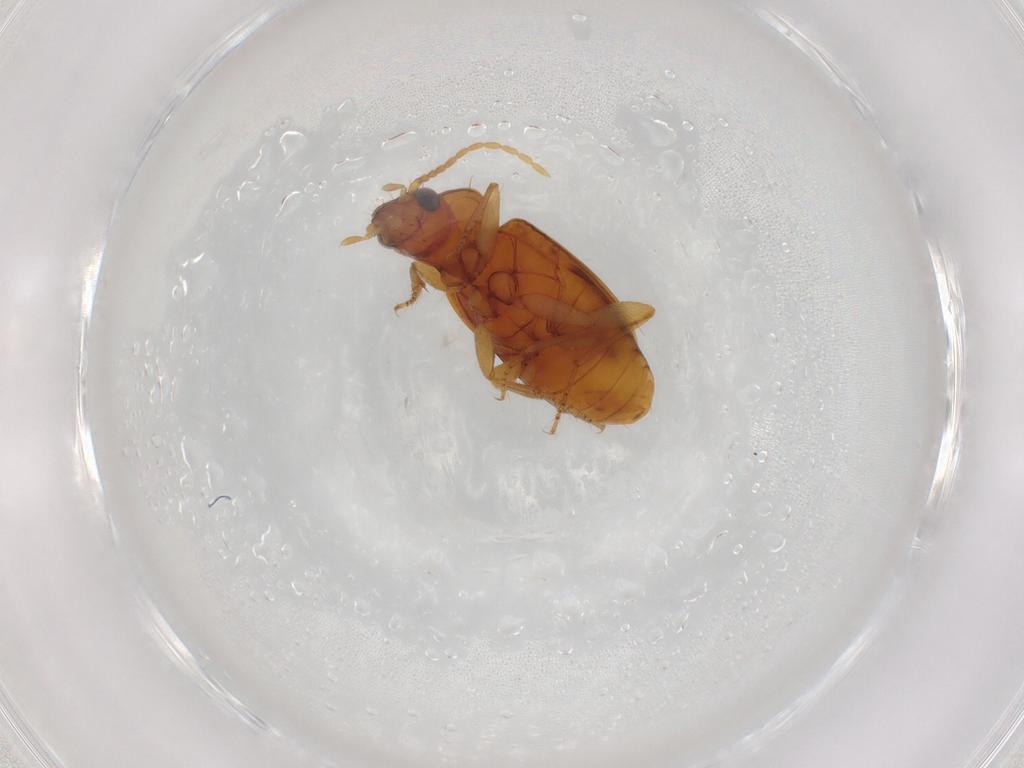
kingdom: Animalia
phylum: Arthropoda
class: Insecta
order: Coleoptera
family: Carabidae
